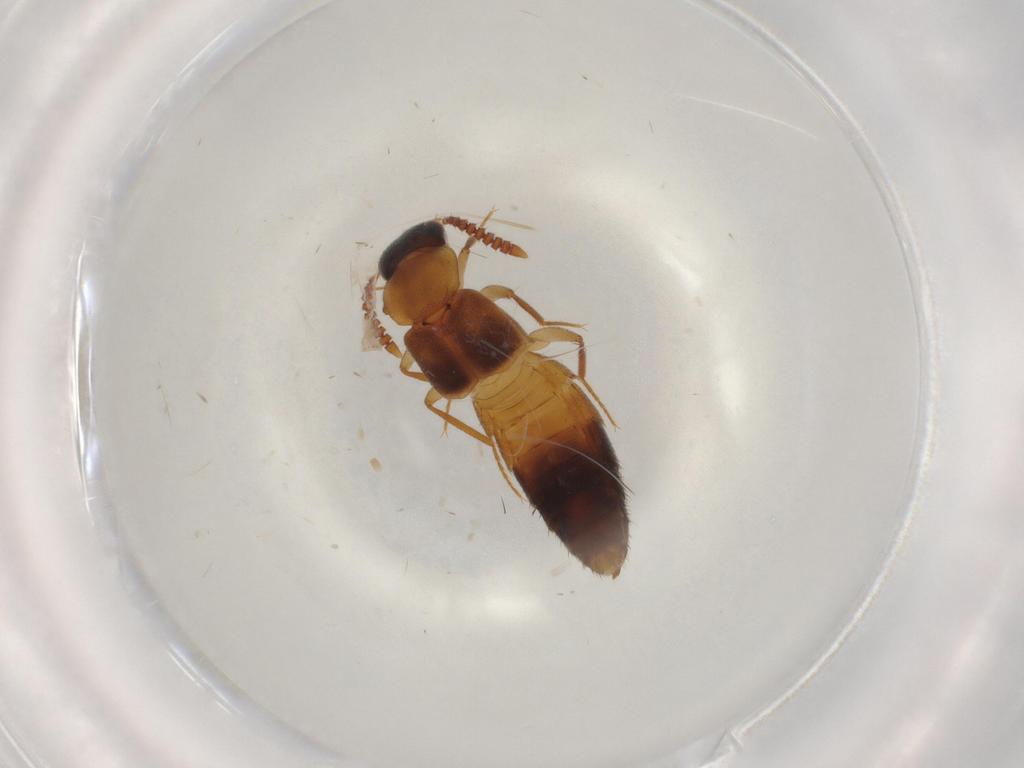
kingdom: Animalia
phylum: Arthropoda
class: Insecta
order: Coleoptera
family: Staphylinidae
